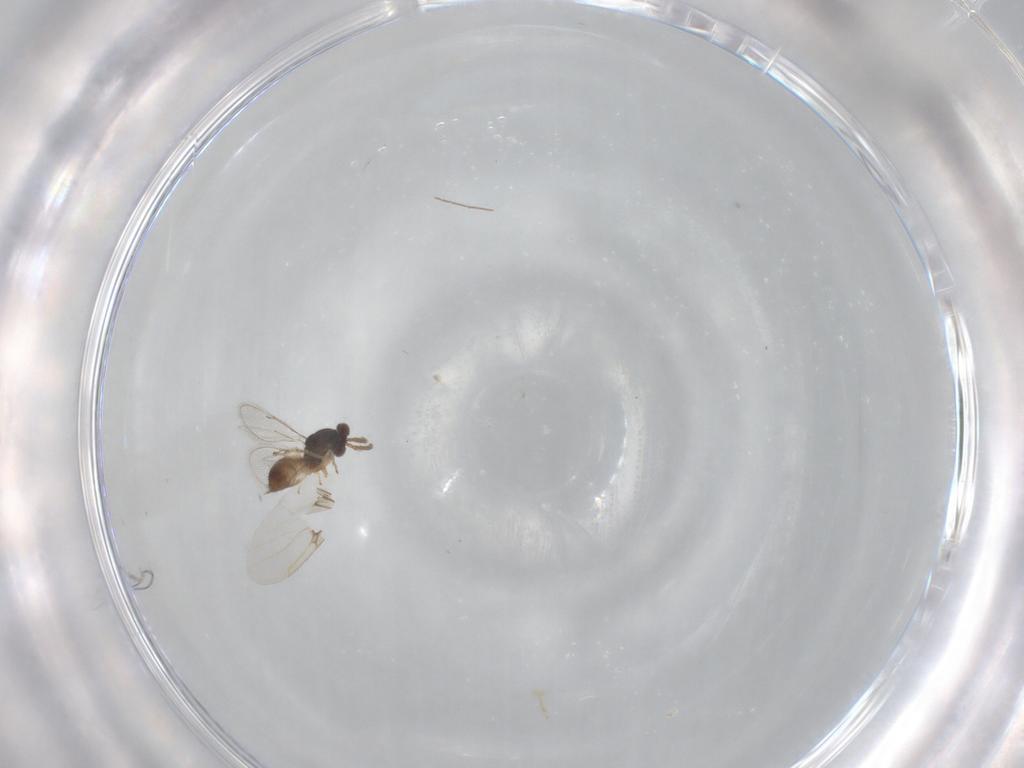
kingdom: Animalia
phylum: Arthropoda
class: Insecta
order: Hymenoptera
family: Eulophidae
